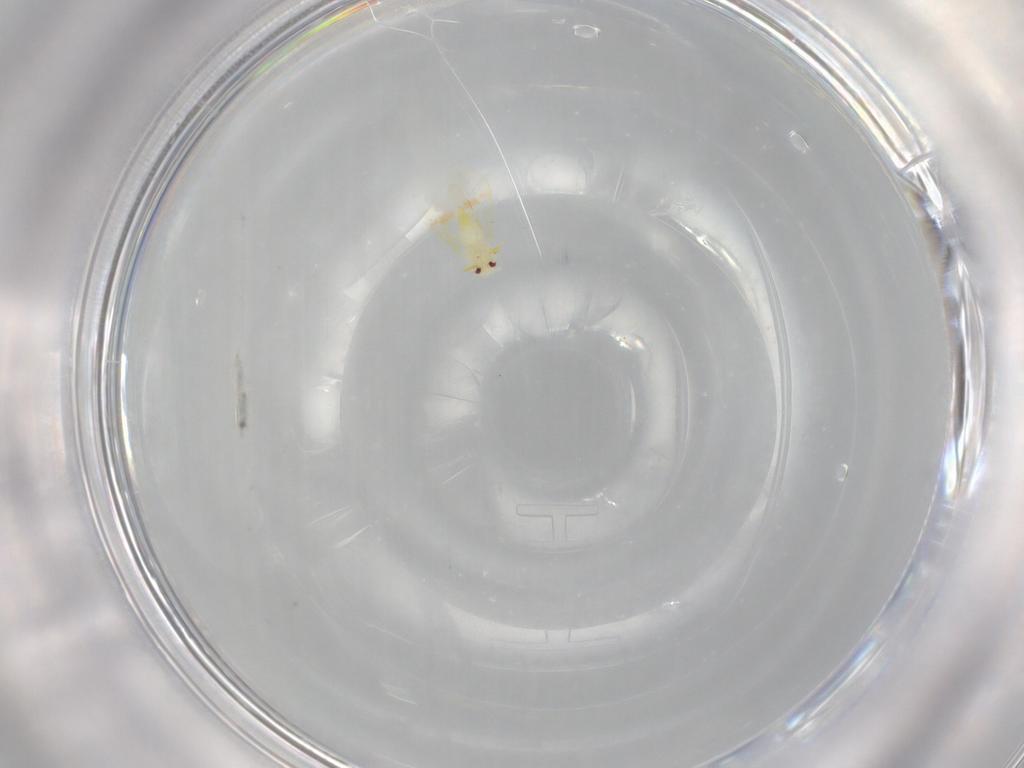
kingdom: Animalia
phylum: Arthropoda
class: Insecta
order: Hemiptera
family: Aleyrodidae
